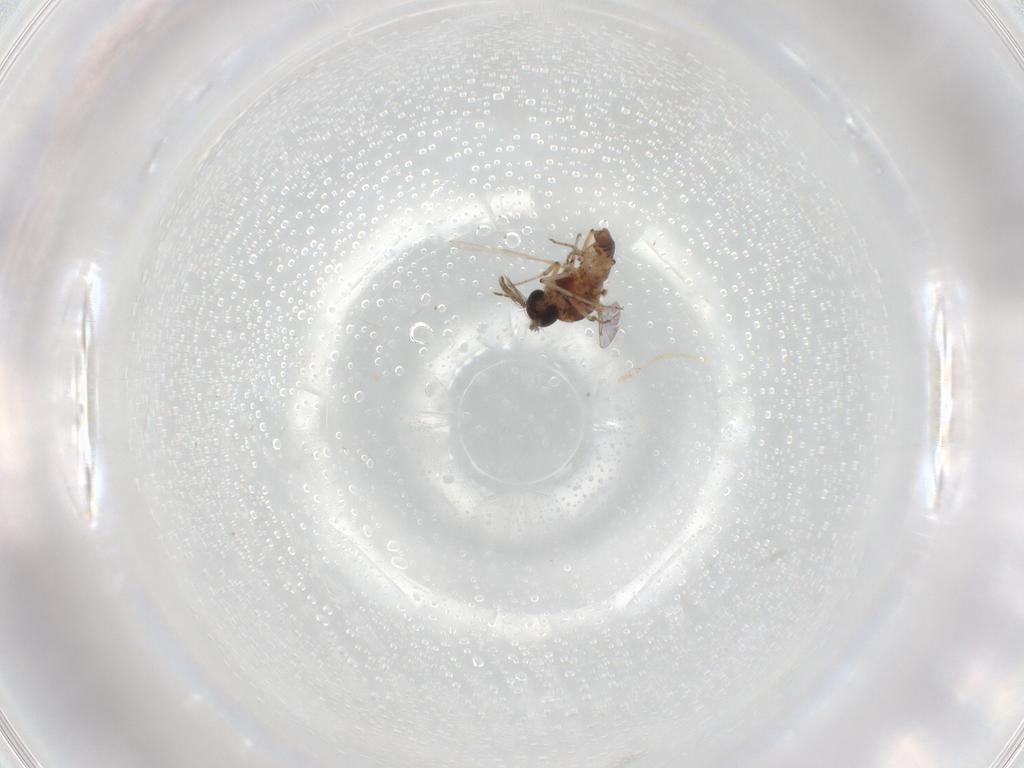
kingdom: Animalia
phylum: Arthropoda
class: Insecta
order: Diptera
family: Ceratopogonidae
